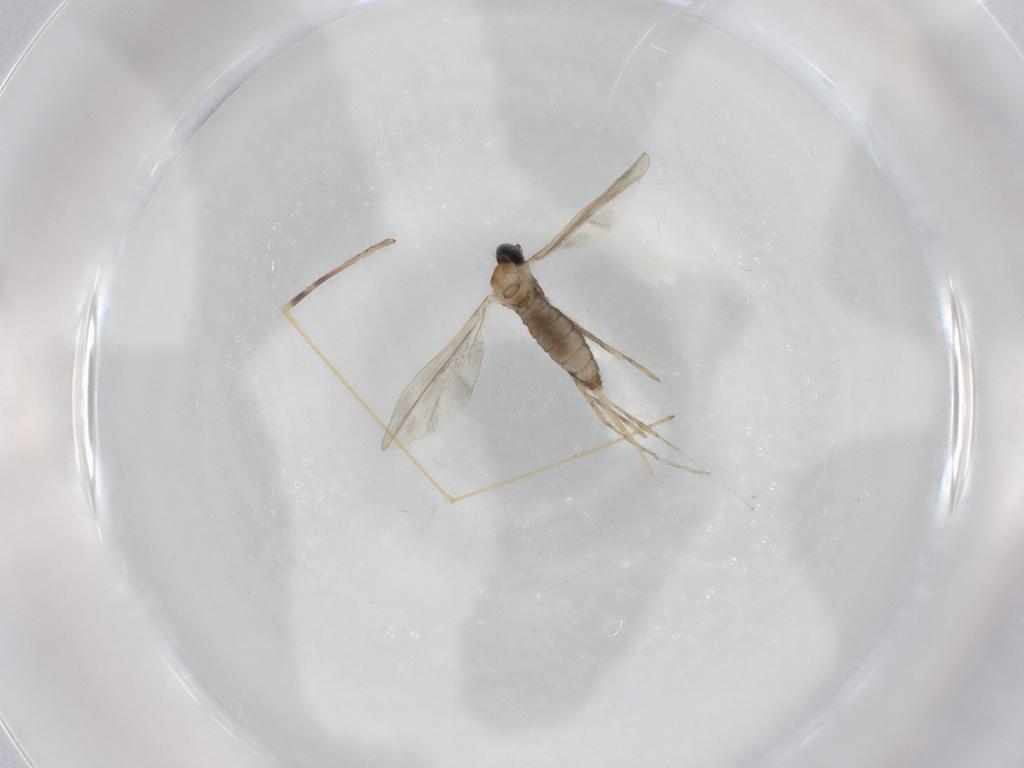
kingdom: Animalia
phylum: Arthropoda
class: Insecta
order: Diptera
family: Cecidomyiidae
